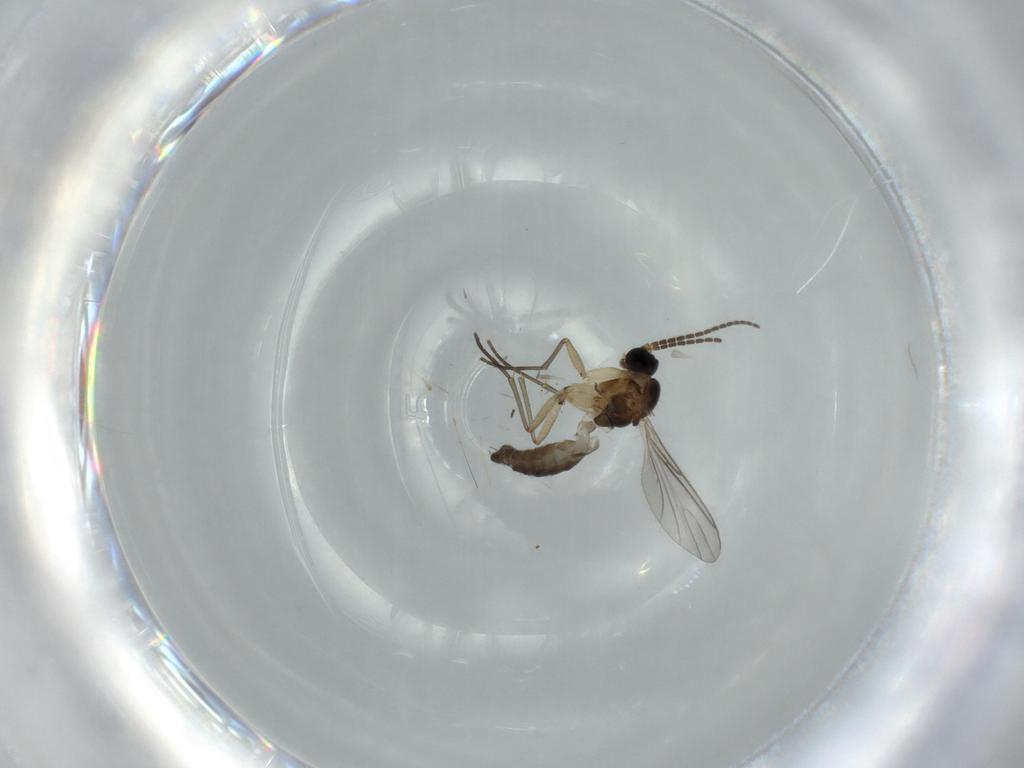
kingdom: Animalia
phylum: Arthropoda
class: Insecta
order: Diptera
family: Sciaridae
